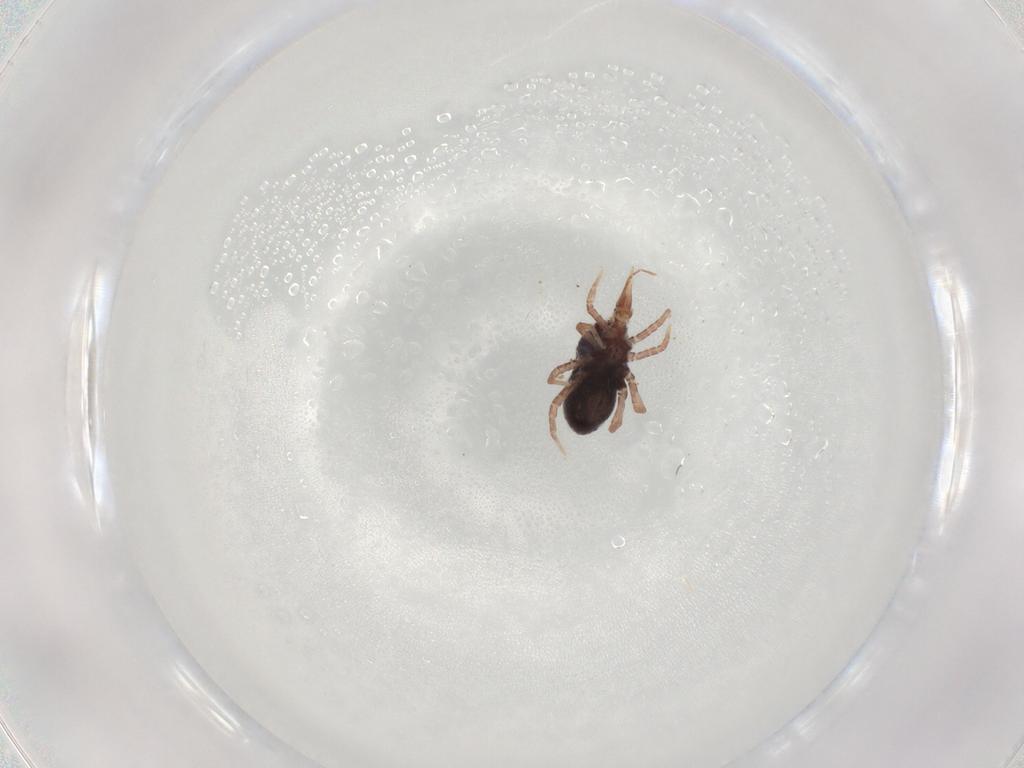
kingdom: Animalia
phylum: Arthropoda
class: Arachnida
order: Trombidiformes
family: Bdellidae
